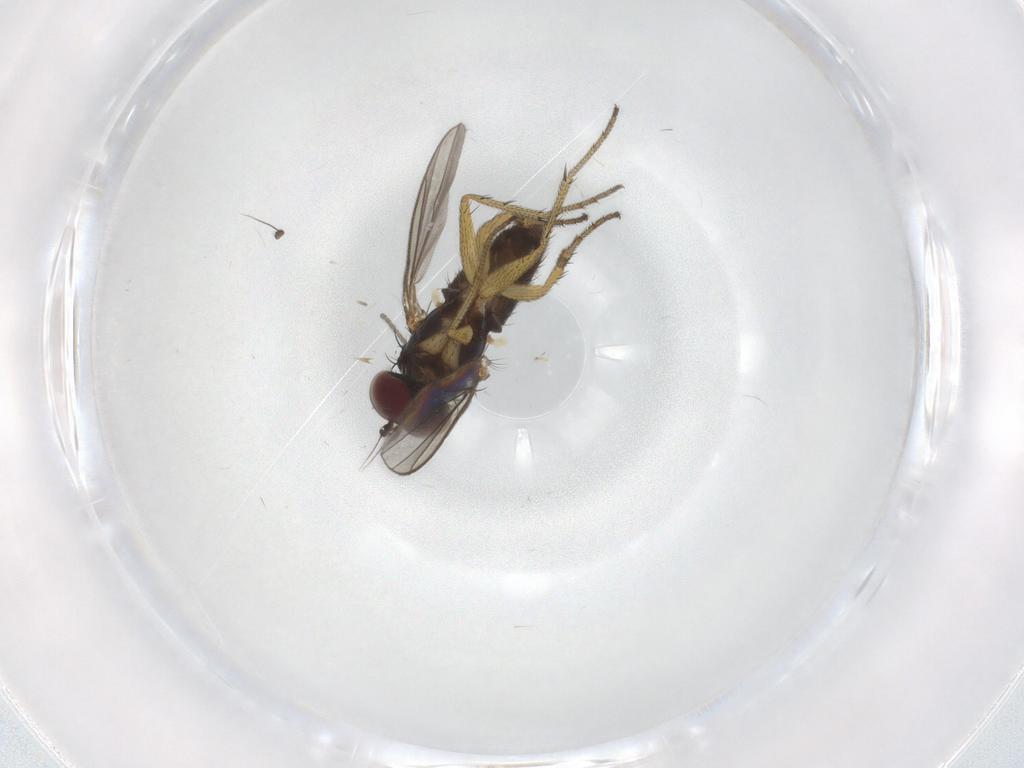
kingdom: Animalia
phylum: Arthropoda
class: Insecta
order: Diptera
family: Sciaridae
